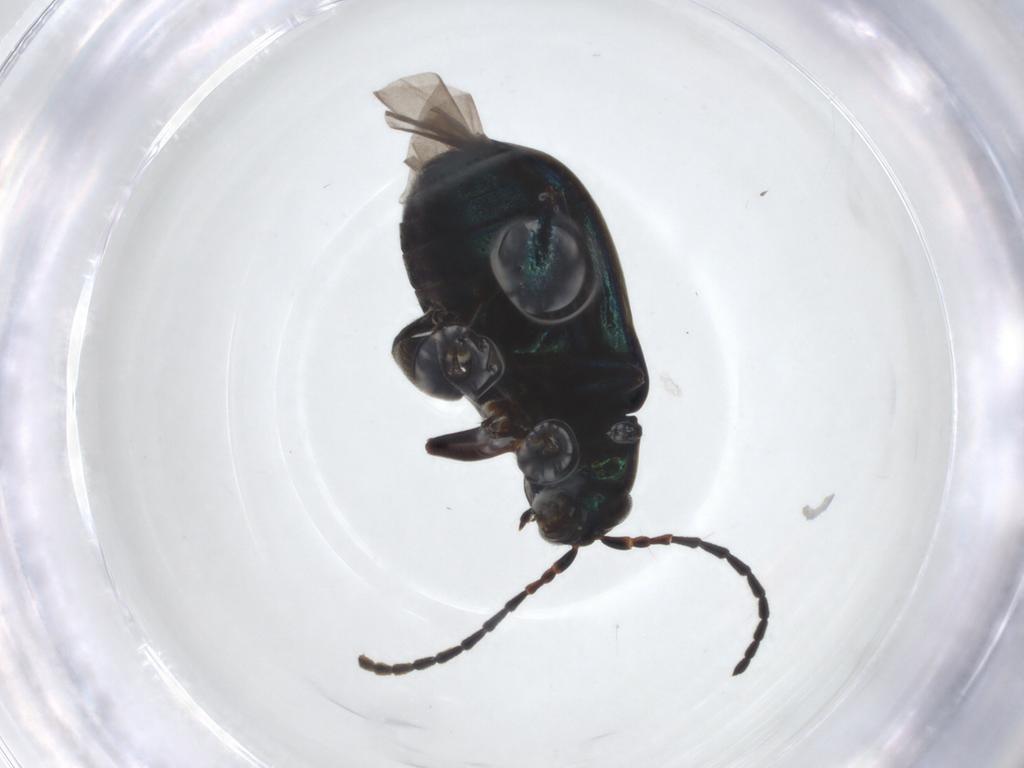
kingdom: Animalia
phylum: Arthropoda
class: Insecta
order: Coleoptera
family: Chrysomelidae
